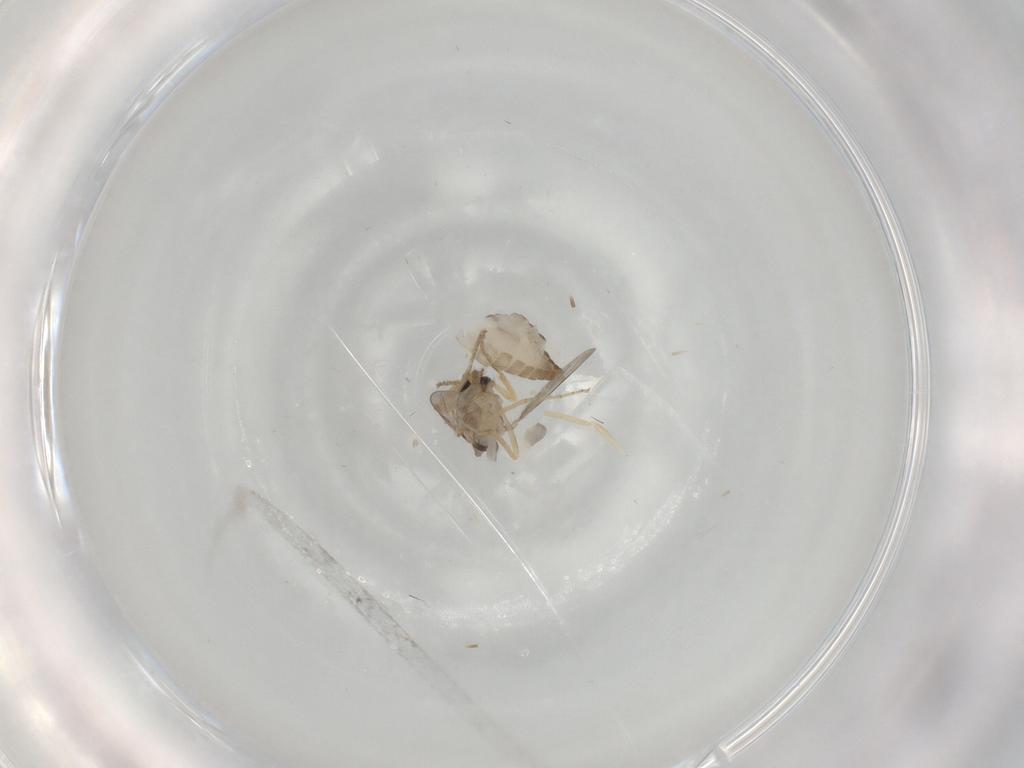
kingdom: Animalia
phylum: Arthropoda
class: Insecta
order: Diptera
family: Ceratopogonidae
